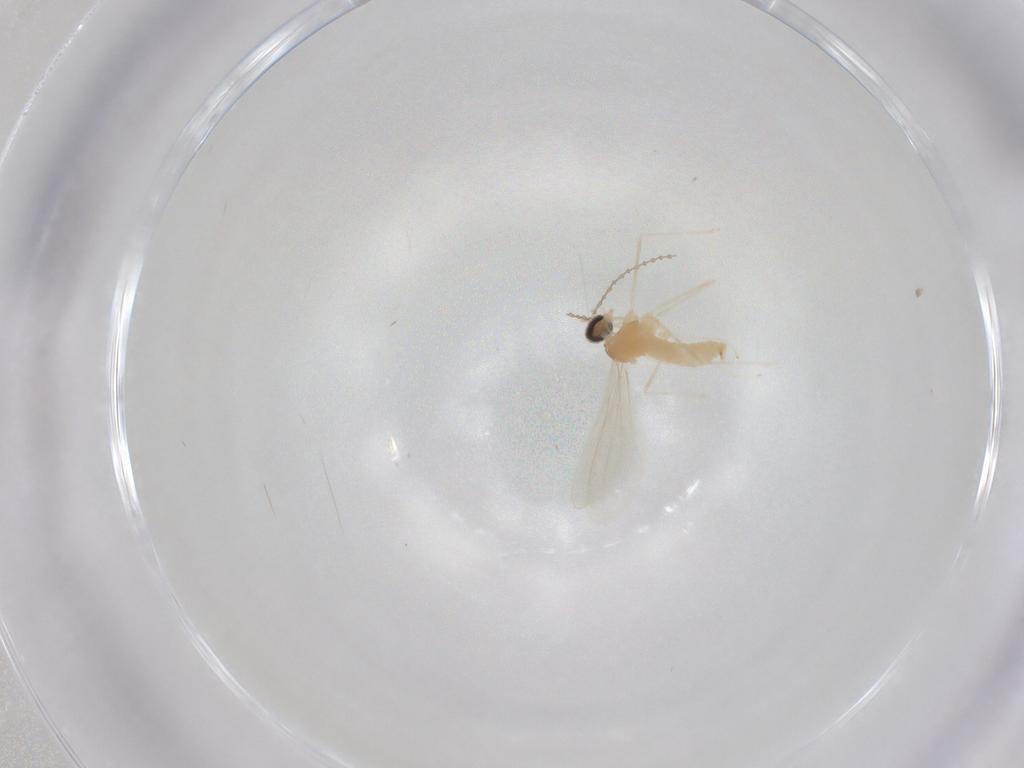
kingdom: Animalia
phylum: Arthropoda
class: Insecta
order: Diptera
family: Cecidomyiidae
